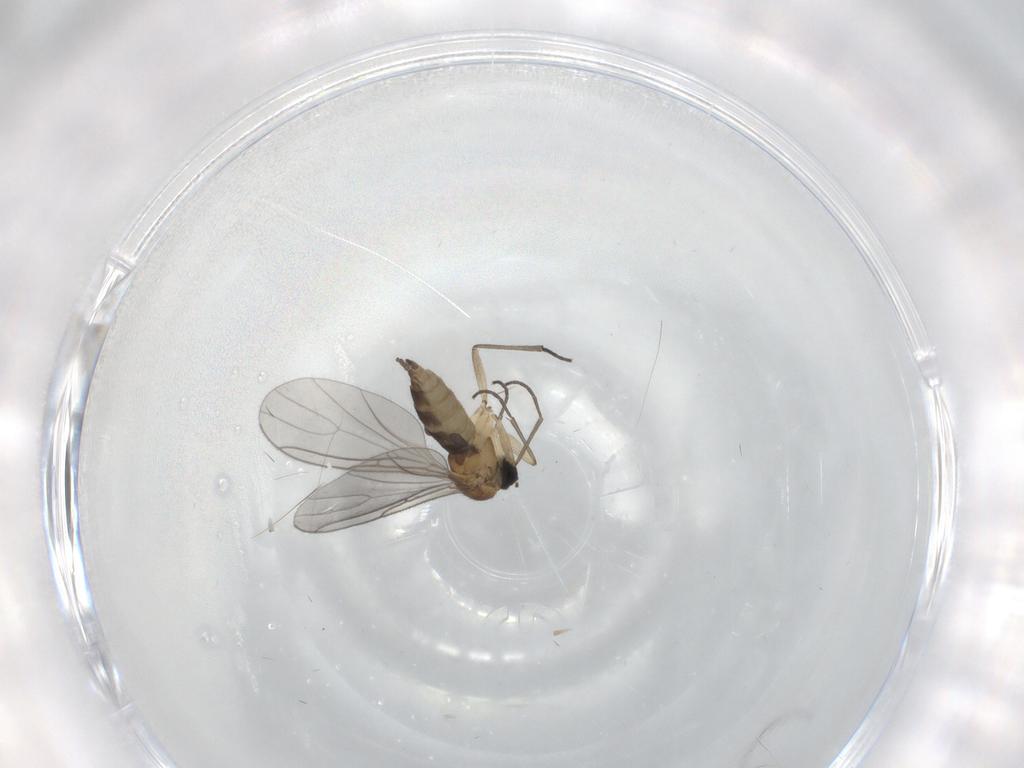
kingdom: Animalia
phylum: Arthropoda
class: Insecta
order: Diptera
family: Sciaridae
